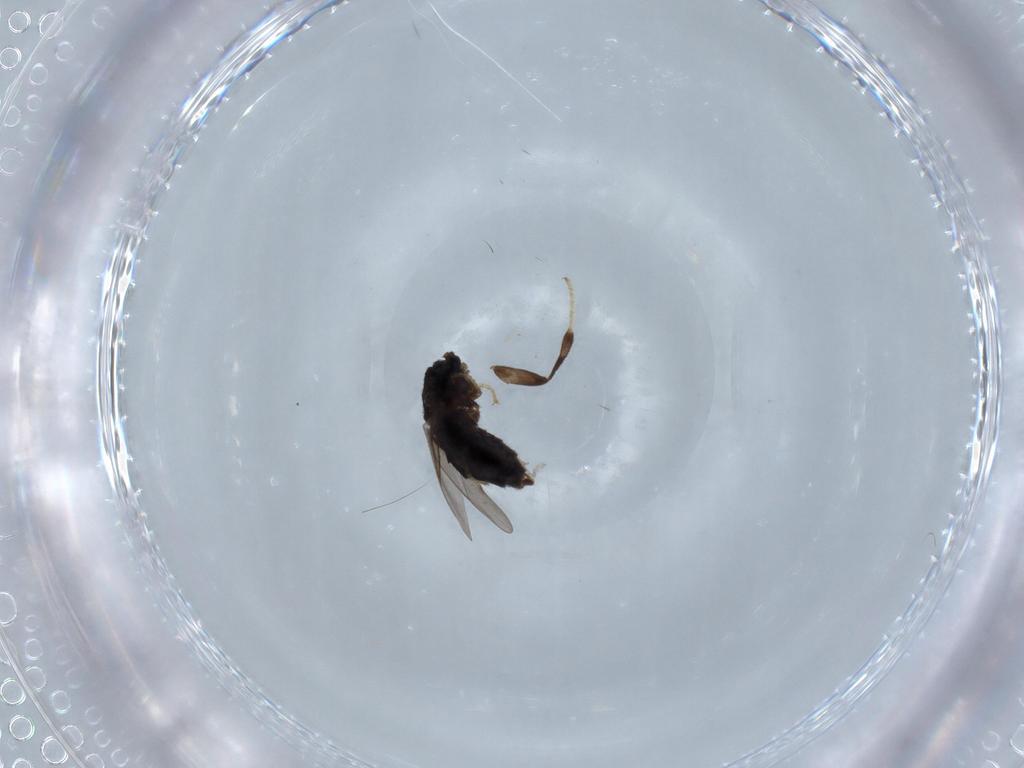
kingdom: Animalia
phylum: Arthropoda
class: Insecta
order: Diptera
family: Scatopsidae
